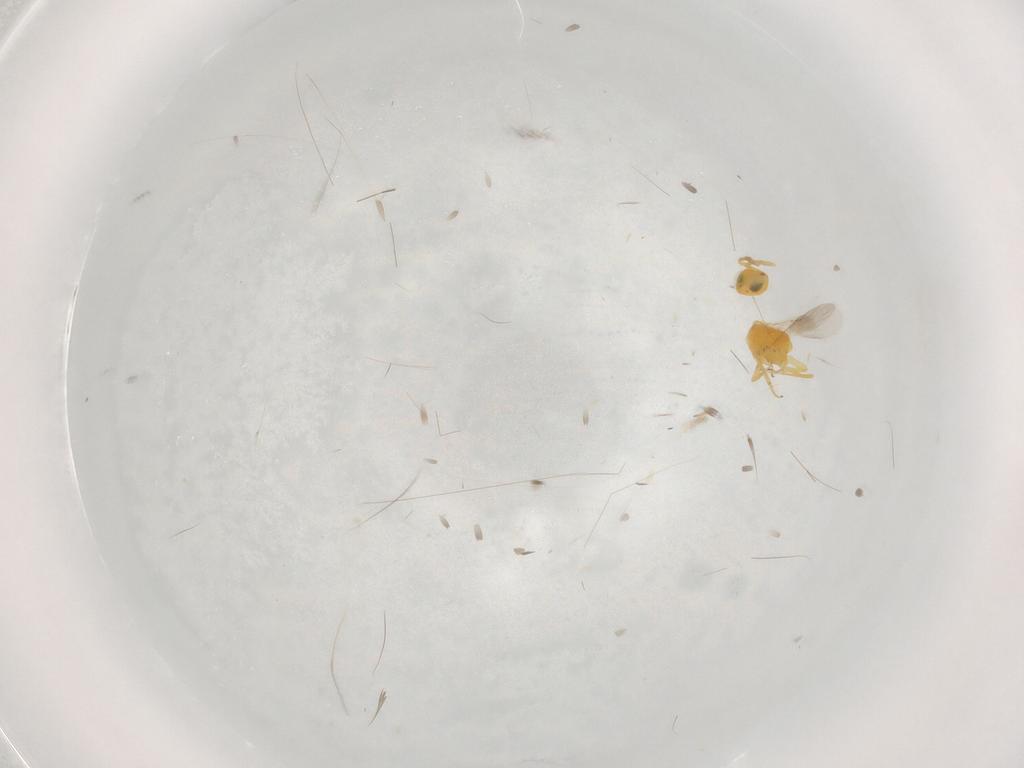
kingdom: Animalia
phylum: Arthropoda
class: Insecta
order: Hymenoptera
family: Encyrtidae
